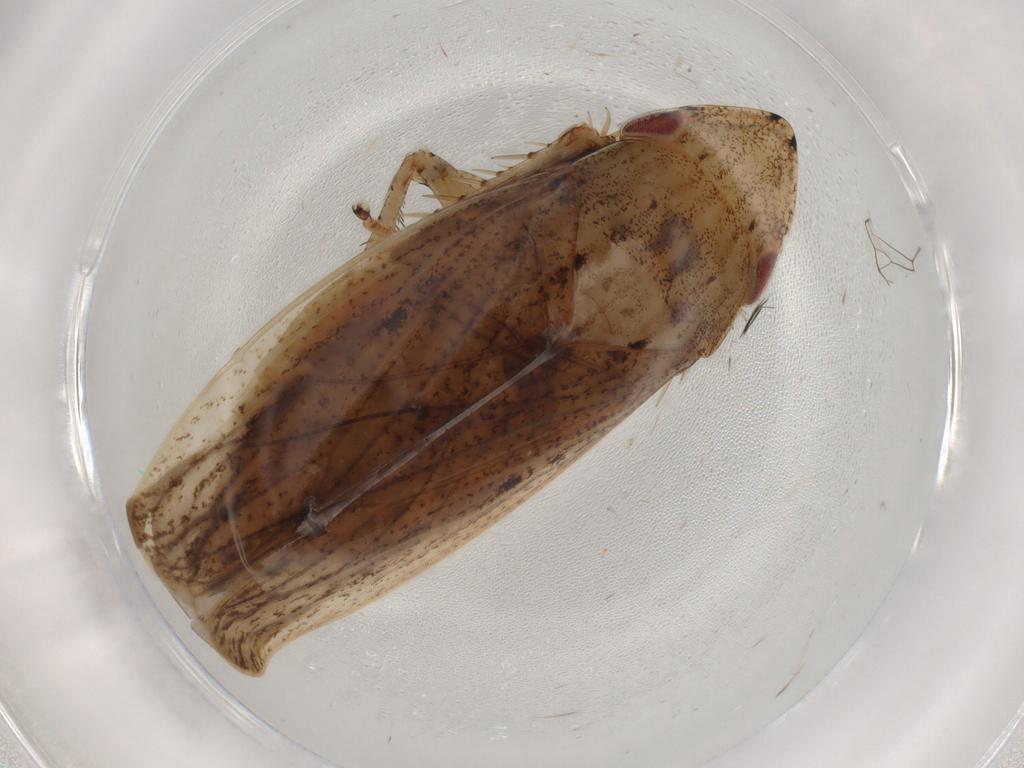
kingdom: Animalia
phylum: Arthropoda
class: Insecta
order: Hemiptera
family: Cicadellidae
